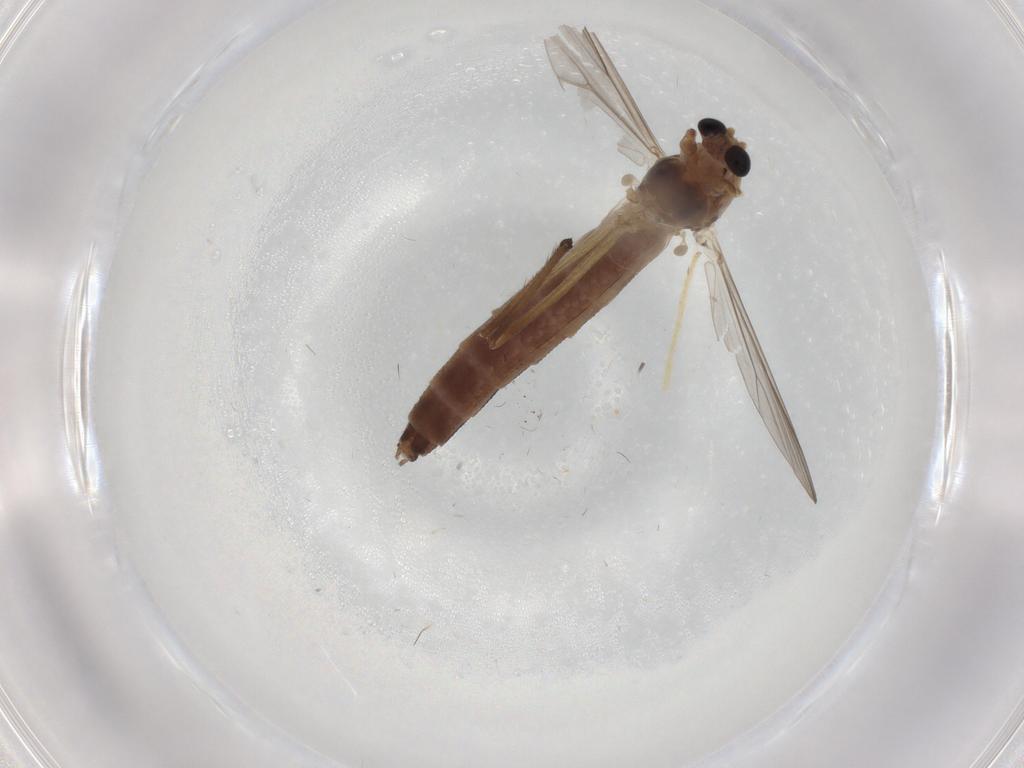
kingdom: Animalia
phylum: Arthropoda
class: Insecta
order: Diptera
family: Chironomidae
